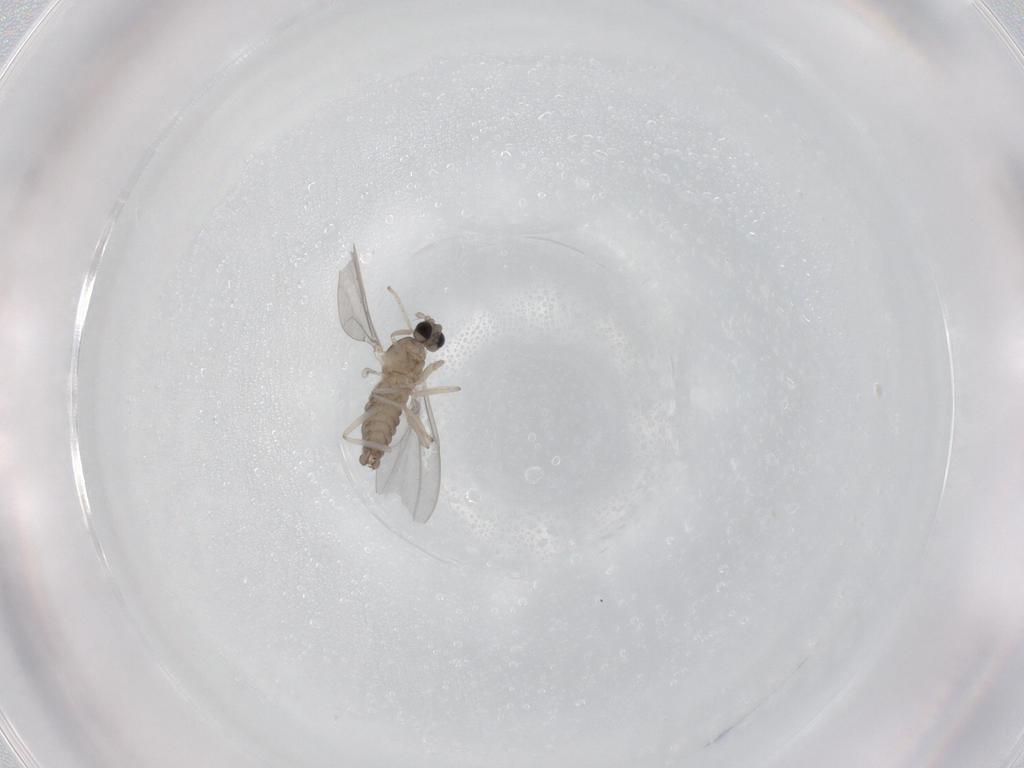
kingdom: Animalia
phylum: Arthropoda
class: Insecta
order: Diptera
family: Cecidomyiidae
